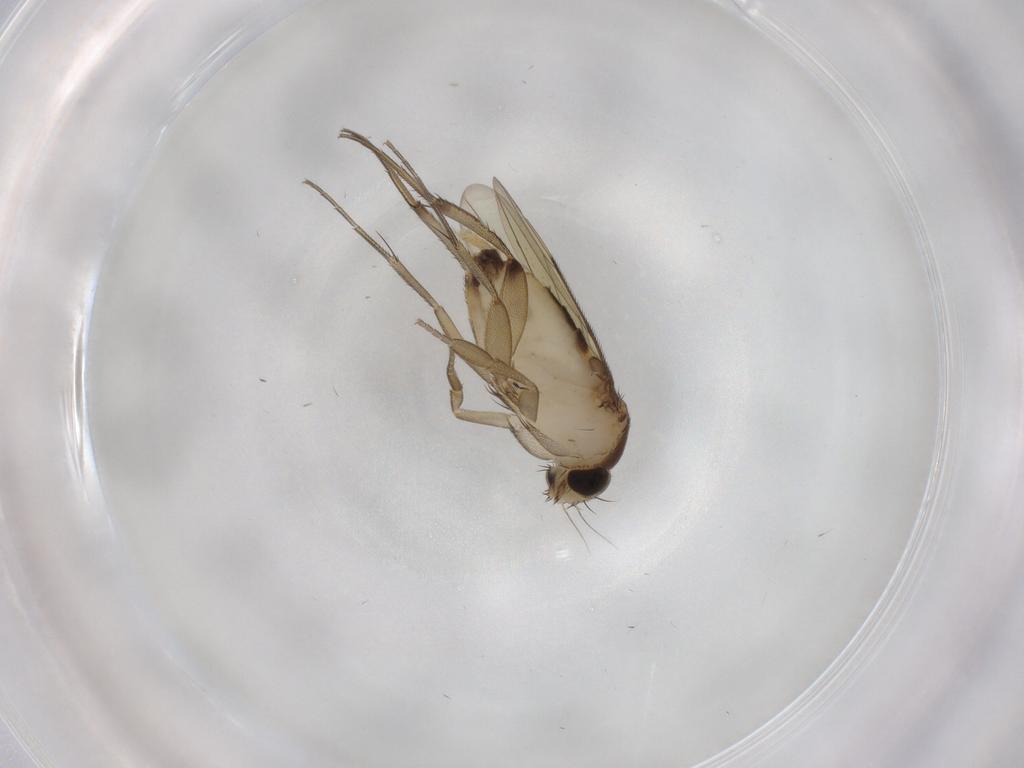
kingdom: Animalia
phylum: Arthropoda
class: Insecta
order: Diptera
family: Phoridae
